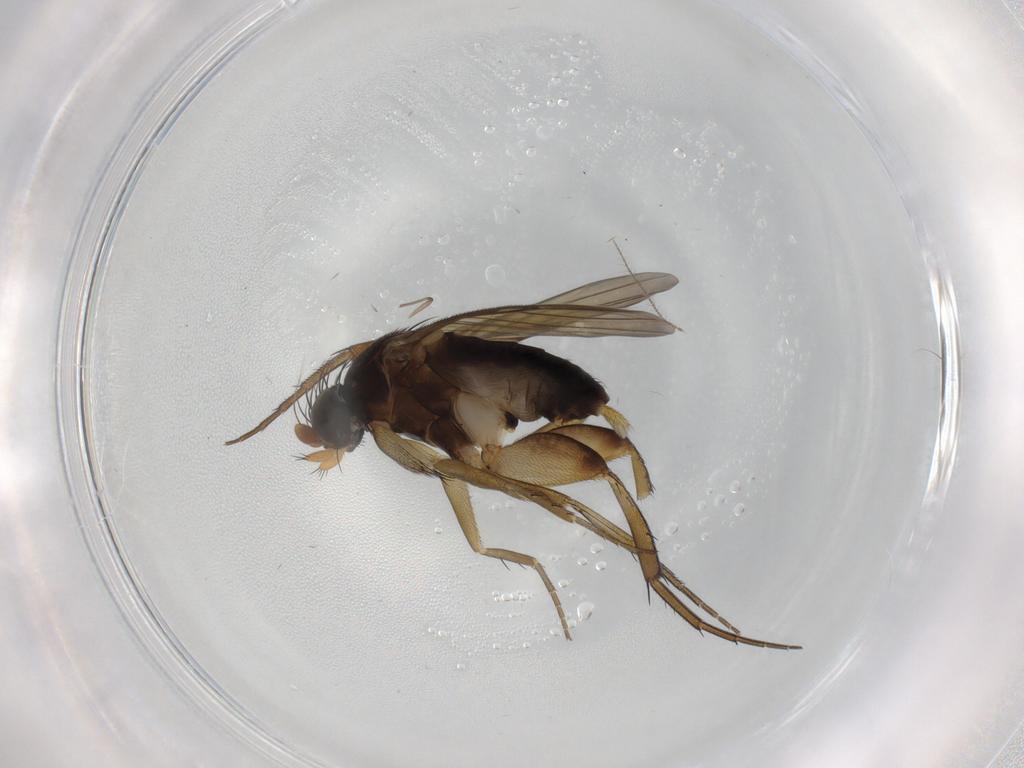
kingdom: Animalia
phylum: Arthropoda
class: Insecta
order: Diptera
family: Phoridae
